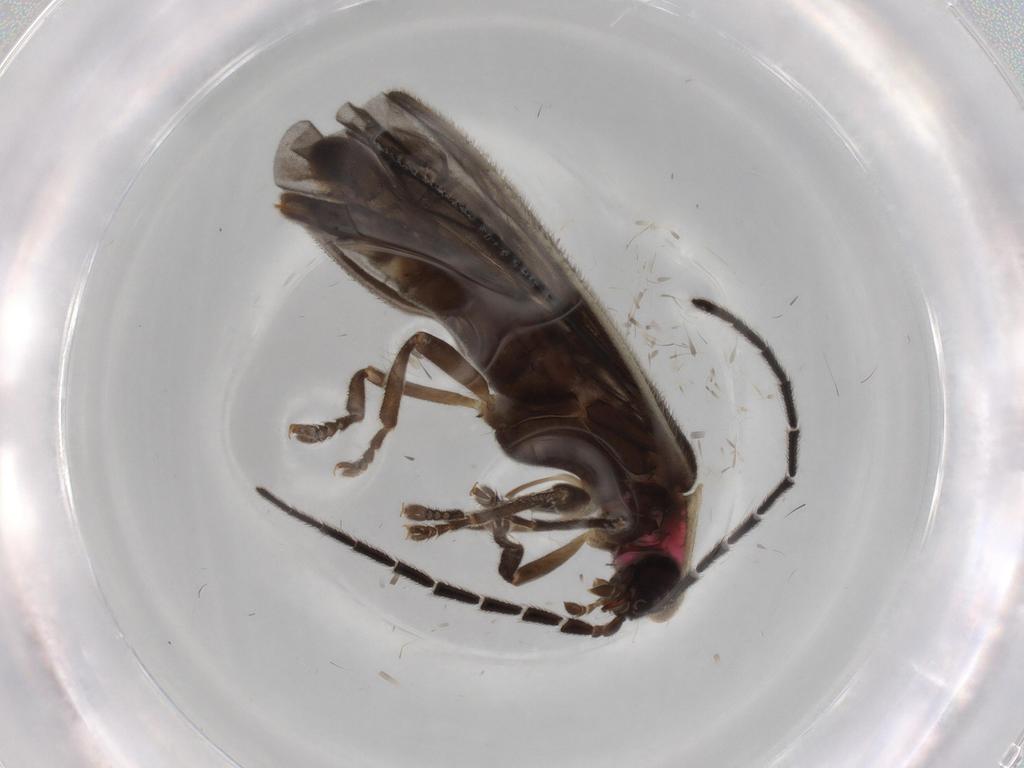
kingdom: Animalia
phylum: Arthropoda
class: Insecta
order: Coleoptera
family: Lampyridae
